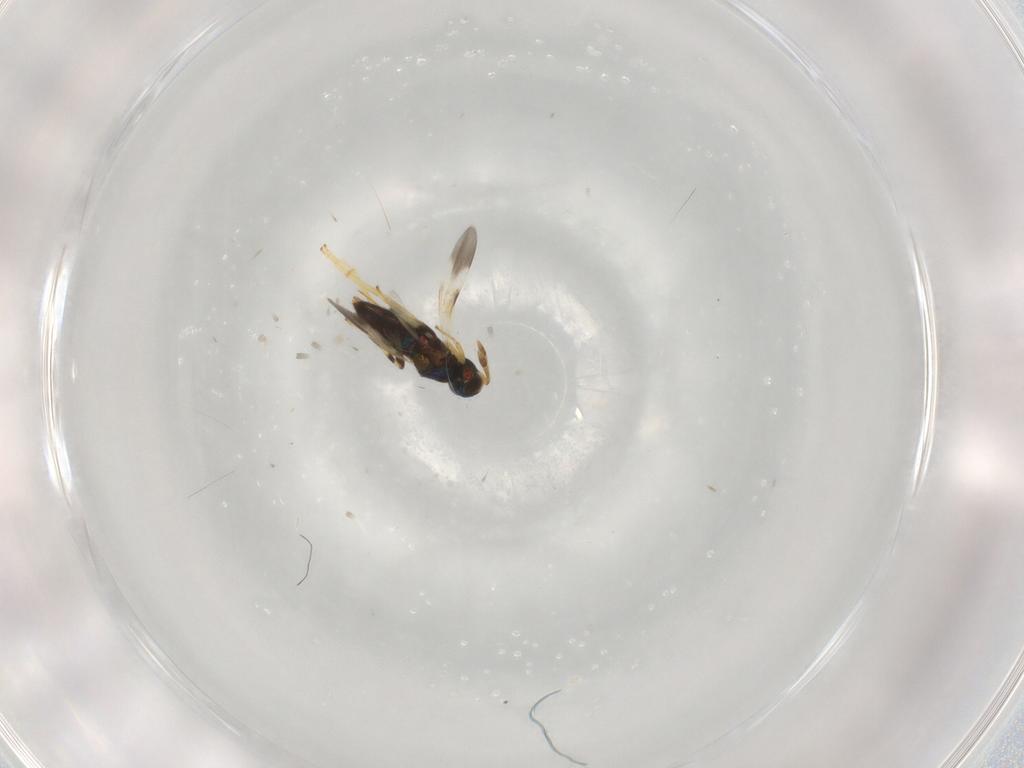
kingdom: Animalia
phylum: Arthropoda
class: Insecta
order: Hymenoptera
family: Encyrtidae
